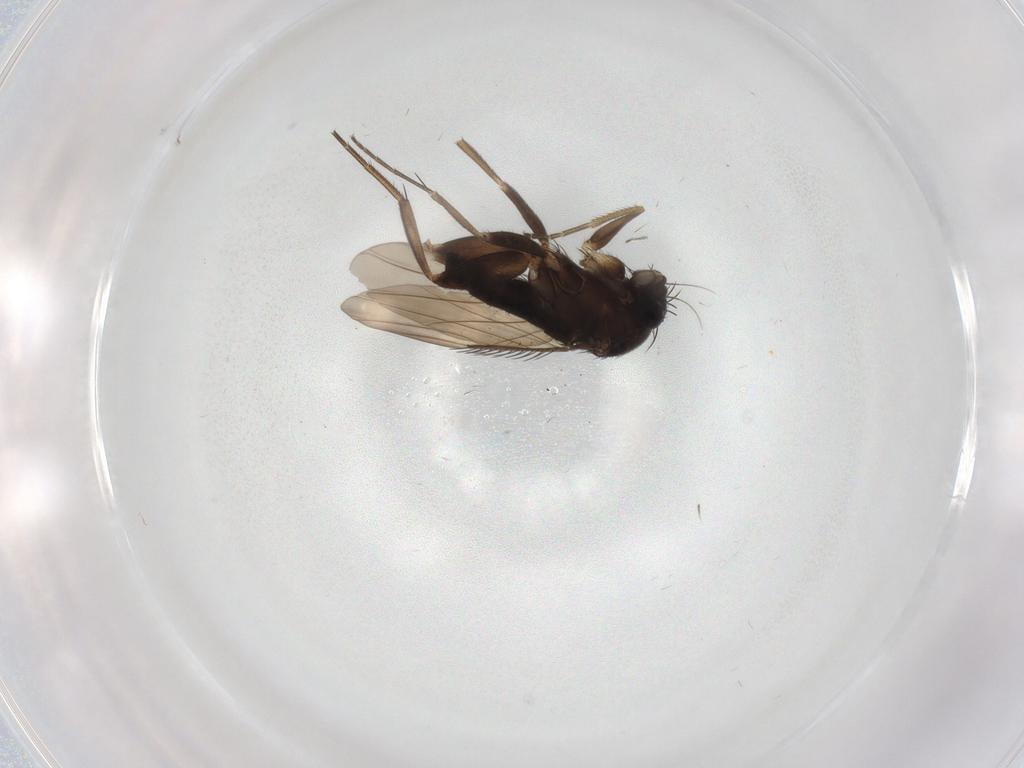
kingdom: Animalia
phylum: Arthropoda
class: Insecta
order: Diptera
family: Phoridae
